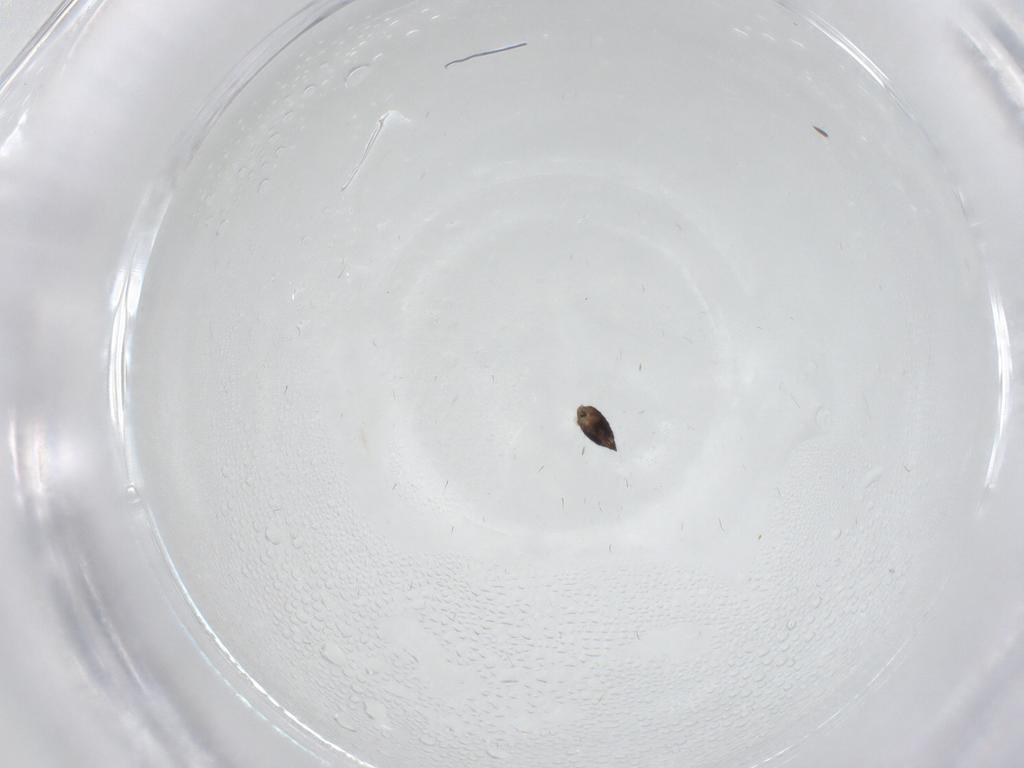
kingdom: Animalia
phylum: Arthropoda
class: Insecta
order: Hymenoptera
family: Eulophidae
